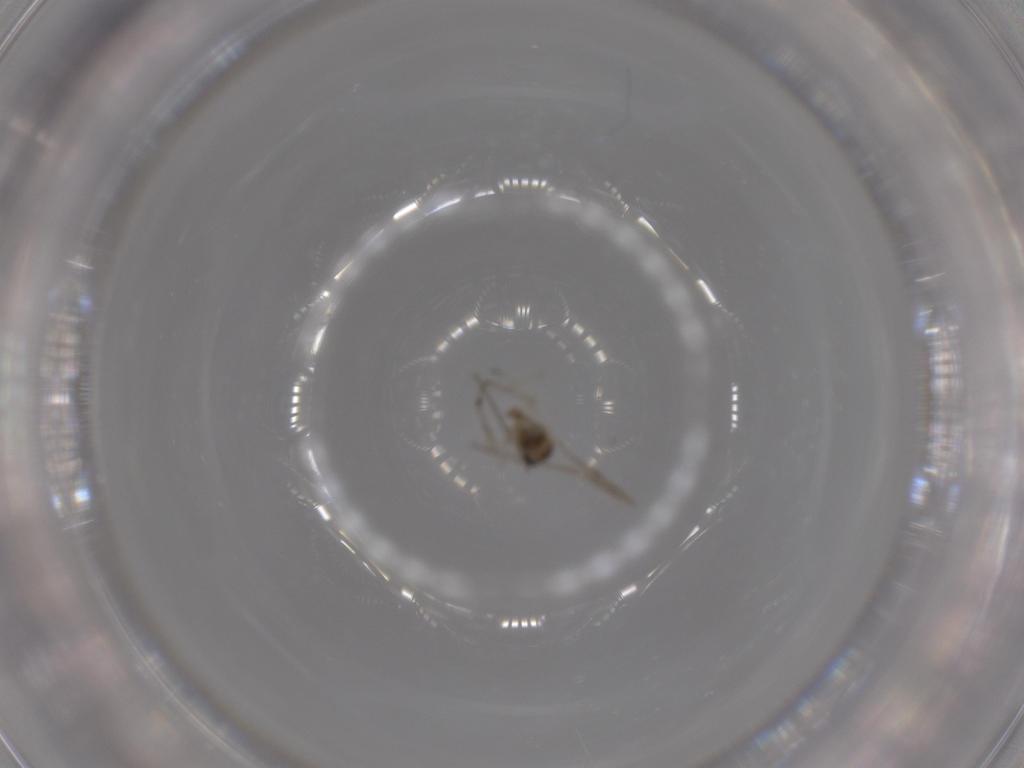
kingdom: Animalia
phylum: Arthropoda
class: Insecta
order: Diptera
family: Cecidomyiidae
